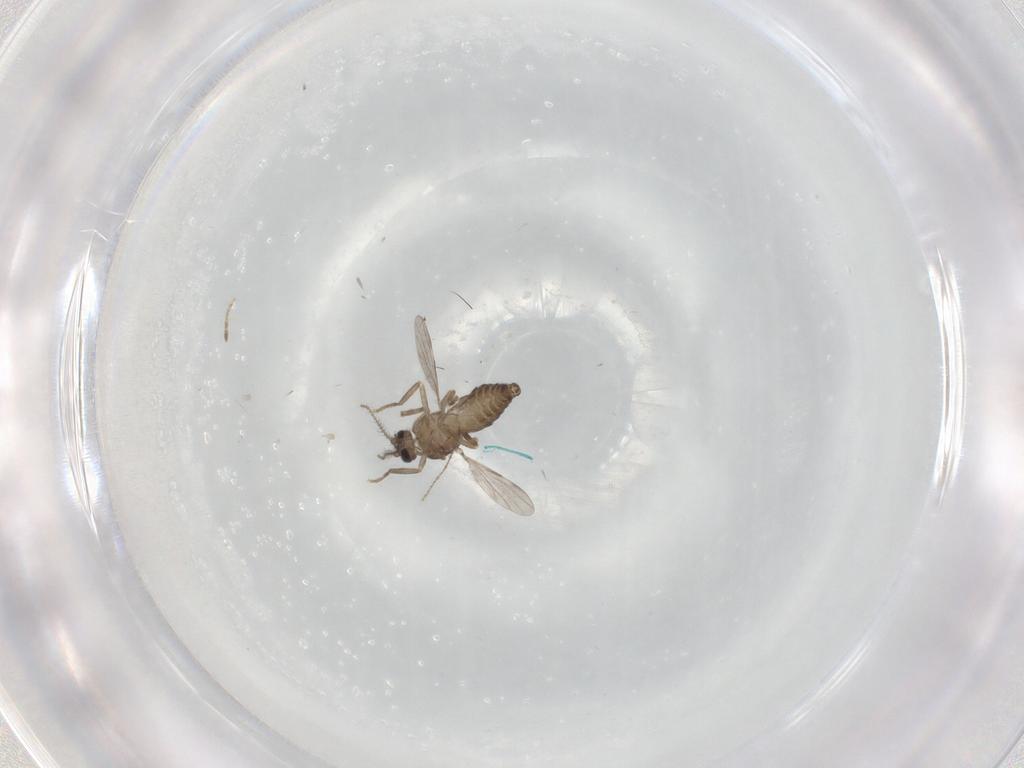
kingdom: Animalia
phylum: Arthropoda
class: Insecta
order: Diptera
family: Ceratopogonidae
